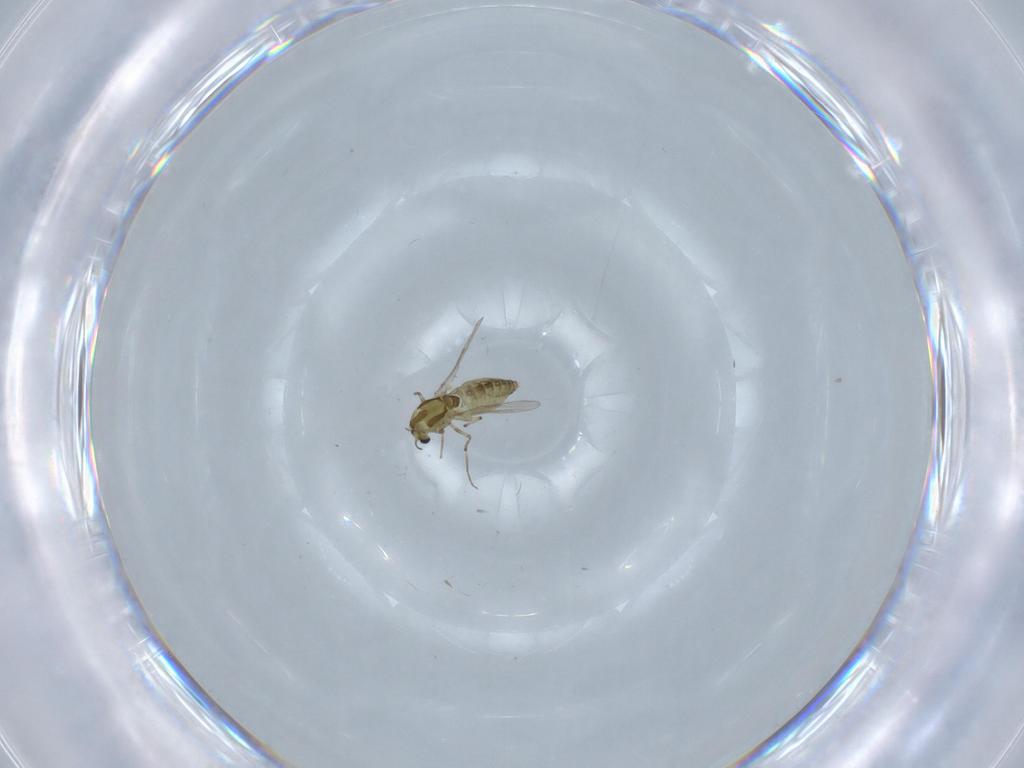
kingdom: Animalia
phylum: Arthropoda
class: Insecta
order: Diptera
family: Chironomidae
